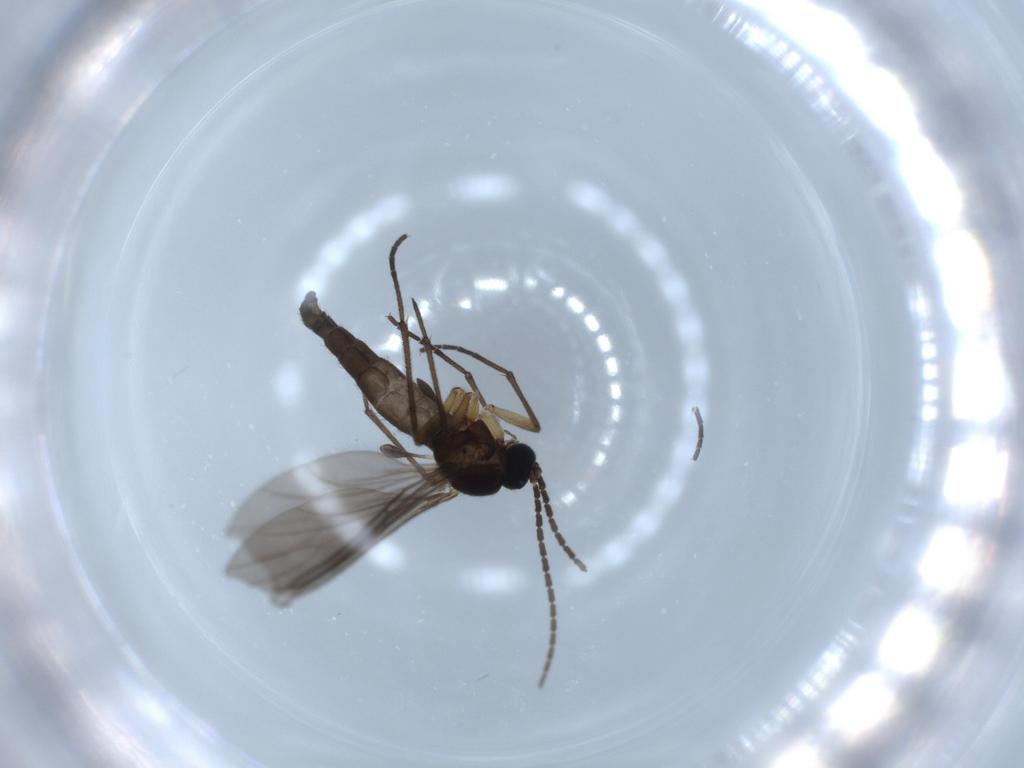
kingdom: Animalia
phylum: Arthropoda
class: Insecta
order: Diptera
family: Sciaridae
